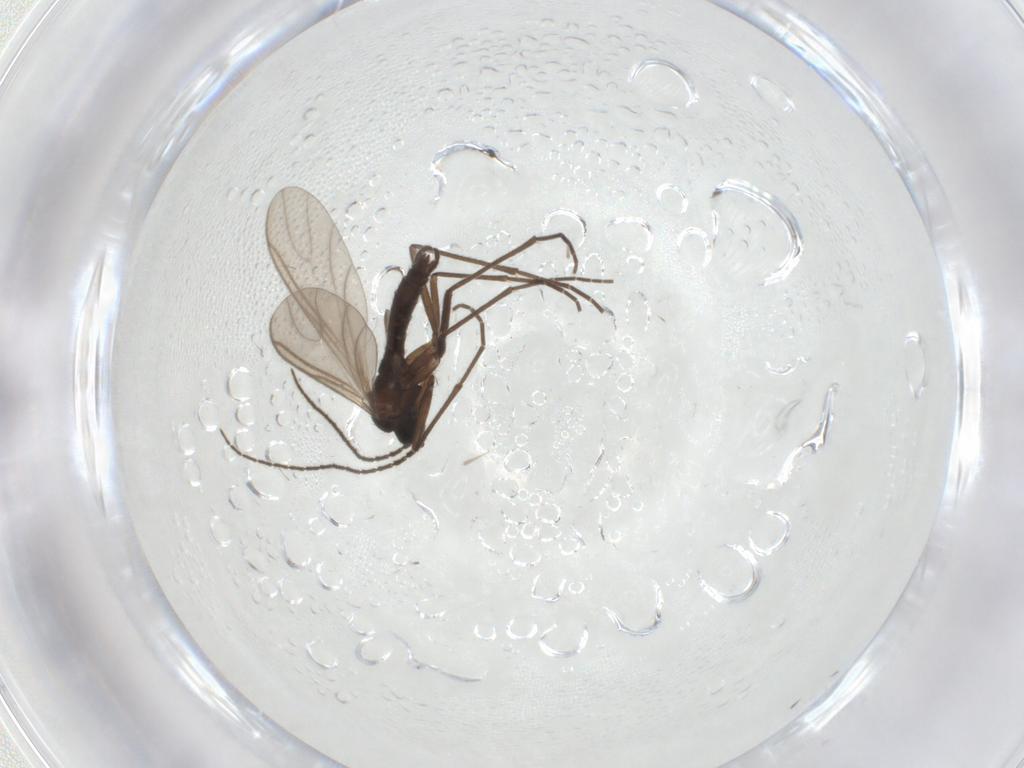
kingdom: Animalia
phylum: Arthropoda
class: Insecta
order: Diptera
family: Sciaridae
